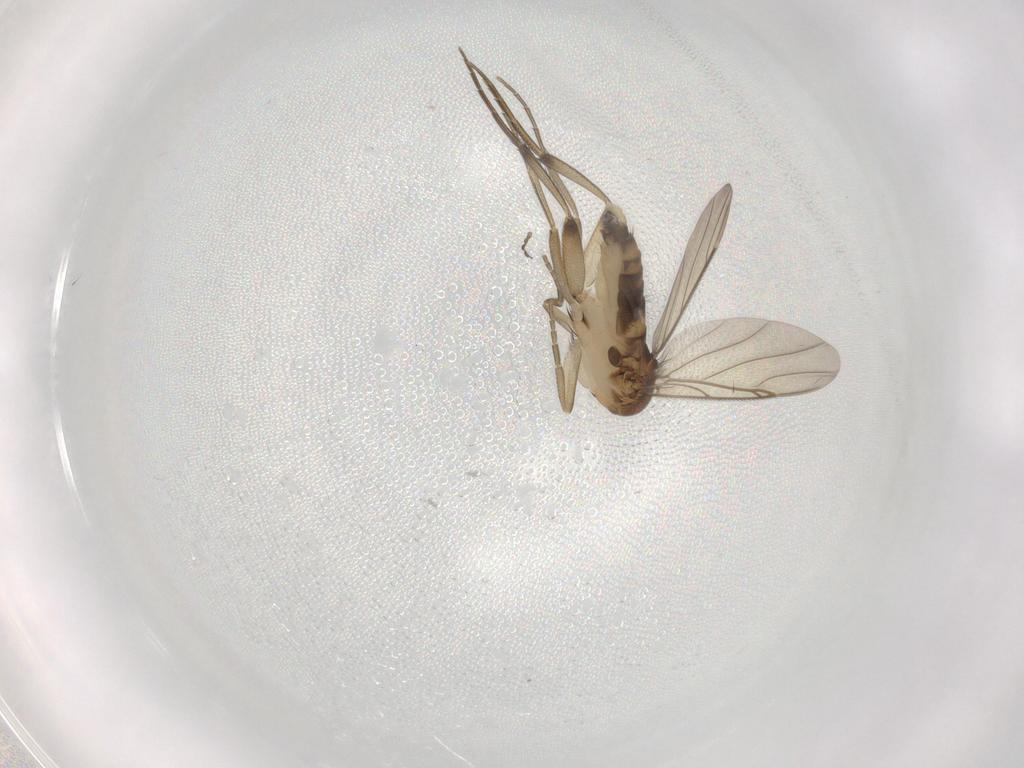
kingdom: Animalia
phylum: Arthropoda
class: Insecta
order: Diptera
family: Phoridae
